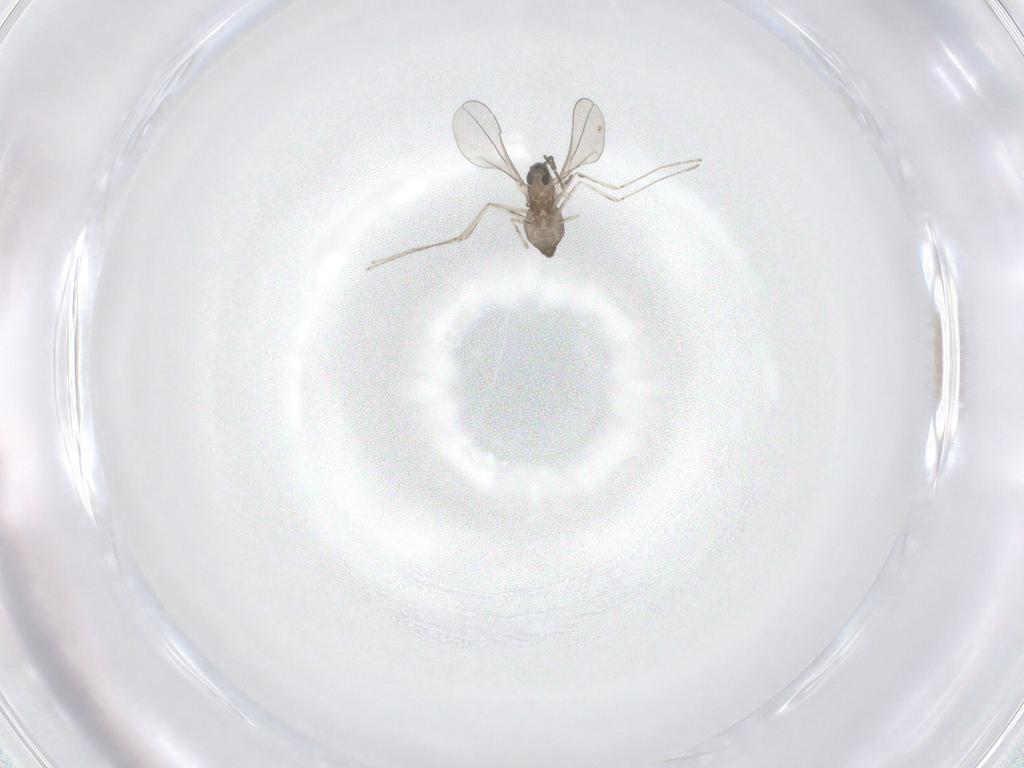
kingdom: Animalia
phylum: Arthropoda
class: Insecta
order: Diptera
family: Cecidomyiidae
